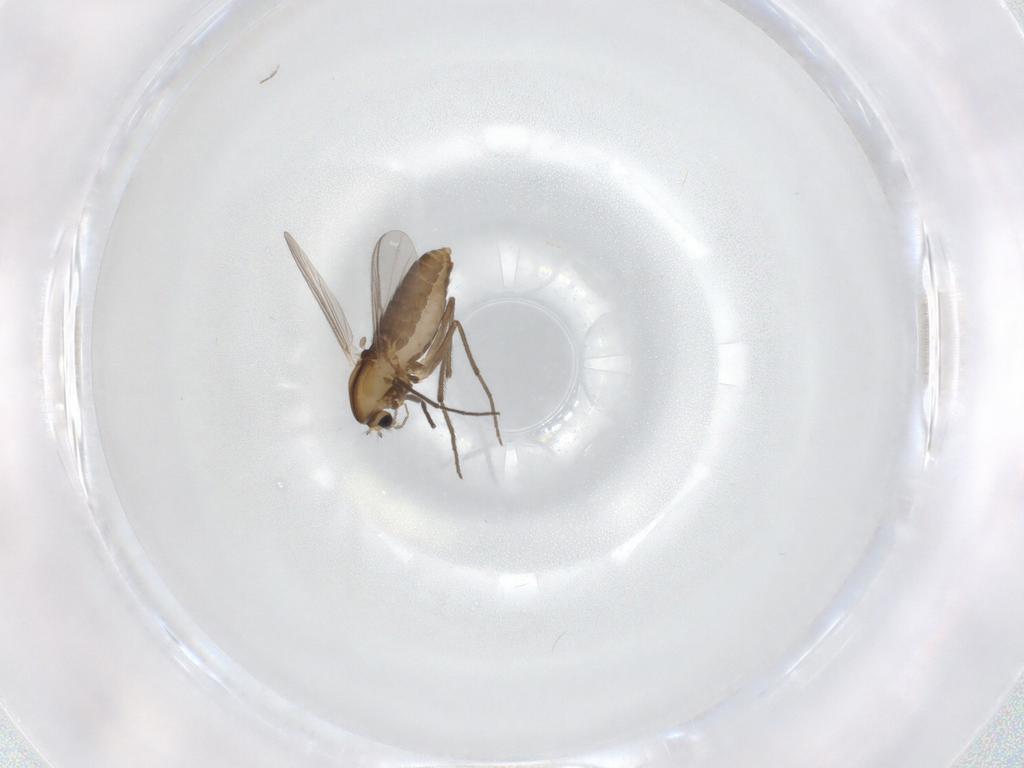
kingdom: Animalia
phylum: Arthropoda
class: Insecta
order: Diptera
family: Chironomidae
